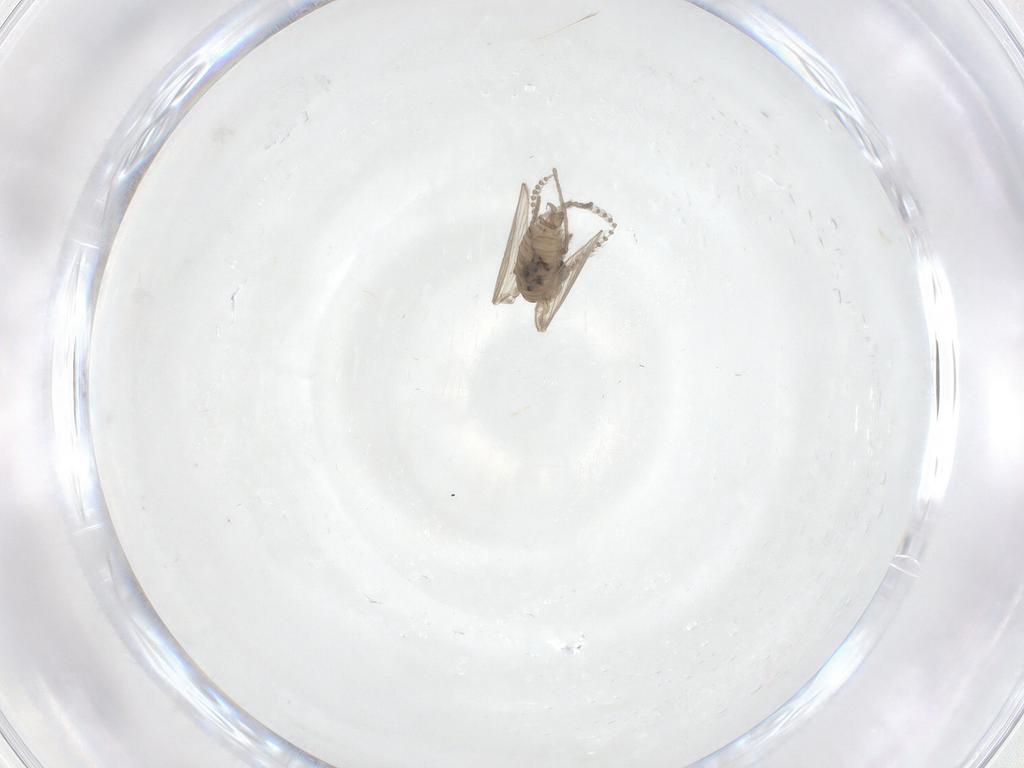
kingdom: Animalia
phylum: Arthropoda
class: Insecta
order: Diptera
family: Psychodidae
